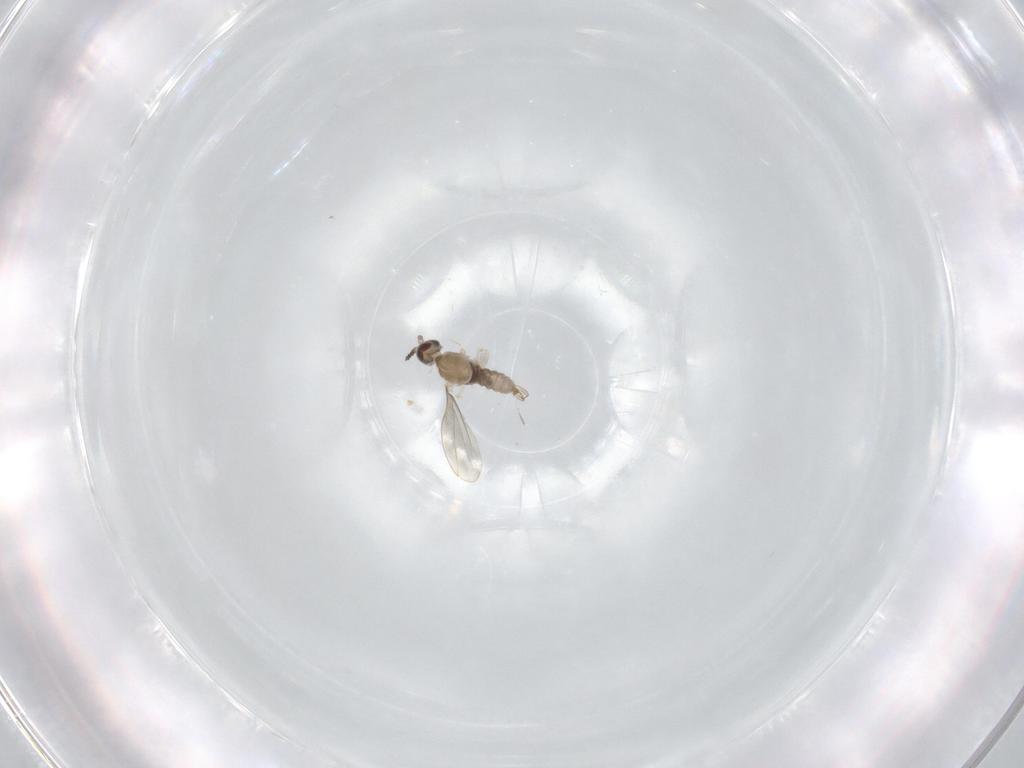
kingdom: Animalia
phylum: Arthropoda
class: Insecta
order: Diptera
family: Cecidomyiidae
